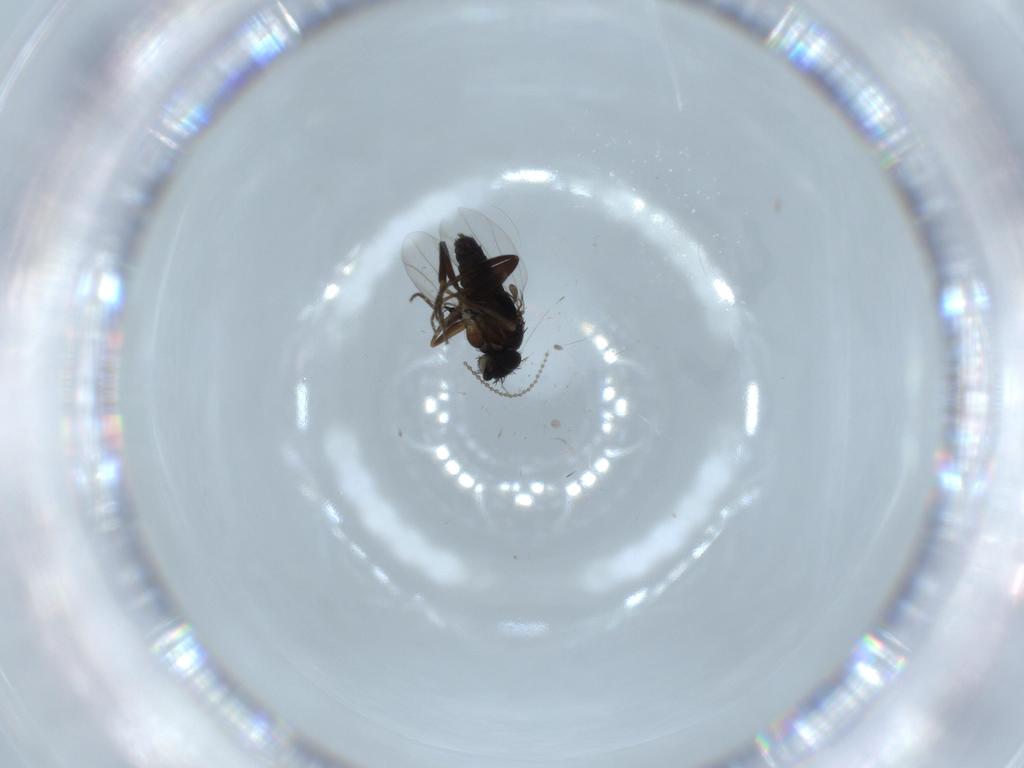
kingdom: Animalia
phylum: Arthropoda
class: Insecta
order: Diptera
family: Phoridae
